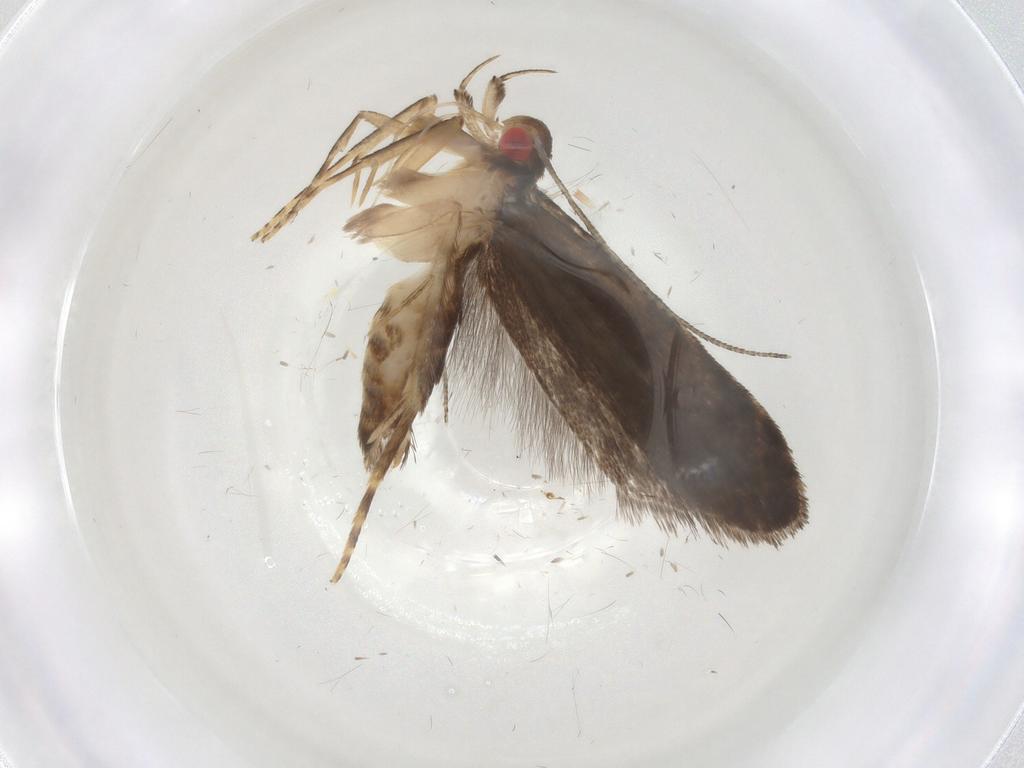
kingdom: Animalia
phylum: Arthropoda
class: Insecta
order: Lepidoptera
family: Gelechiidae
